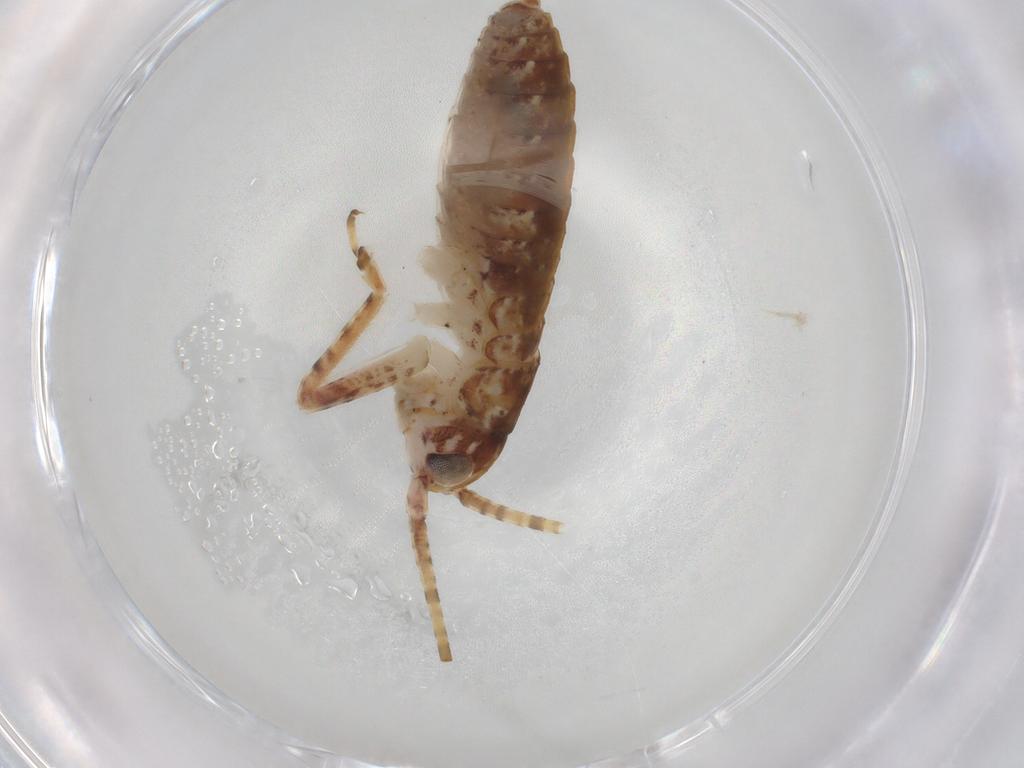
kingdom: Animalia
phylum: Arthropoda
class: Insecta
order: Orthoptera
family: Gryllidae
